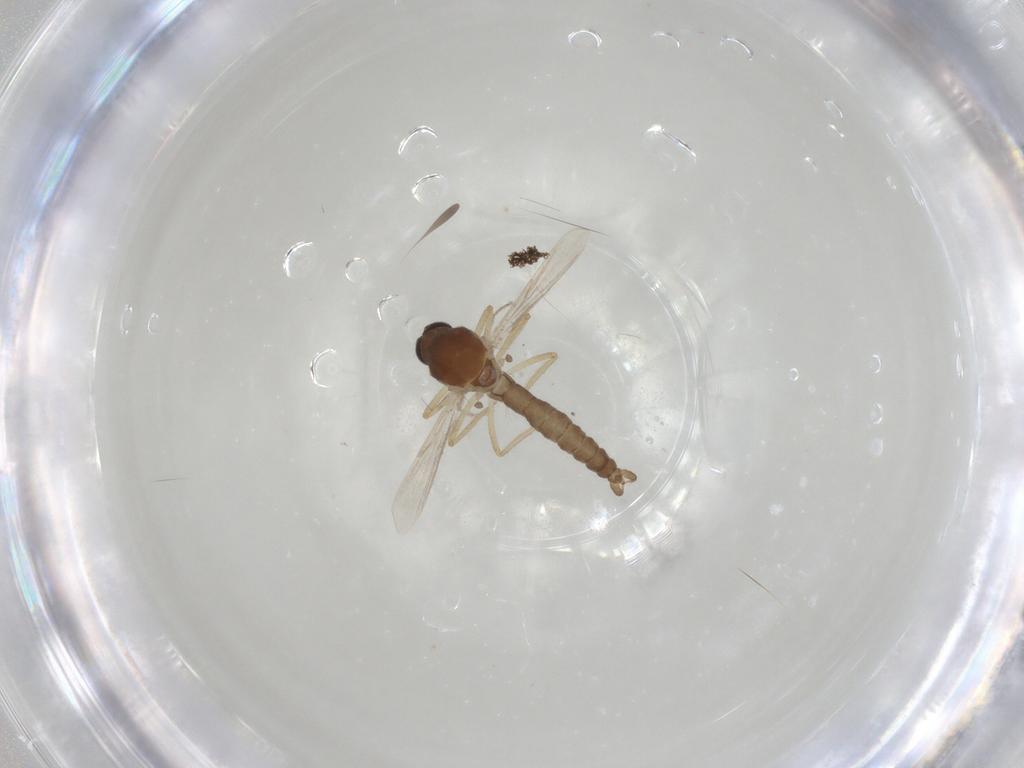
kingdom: Animalia
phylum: Arthropoda
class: Insecta
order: Diptera
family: Ceratopogonidae
